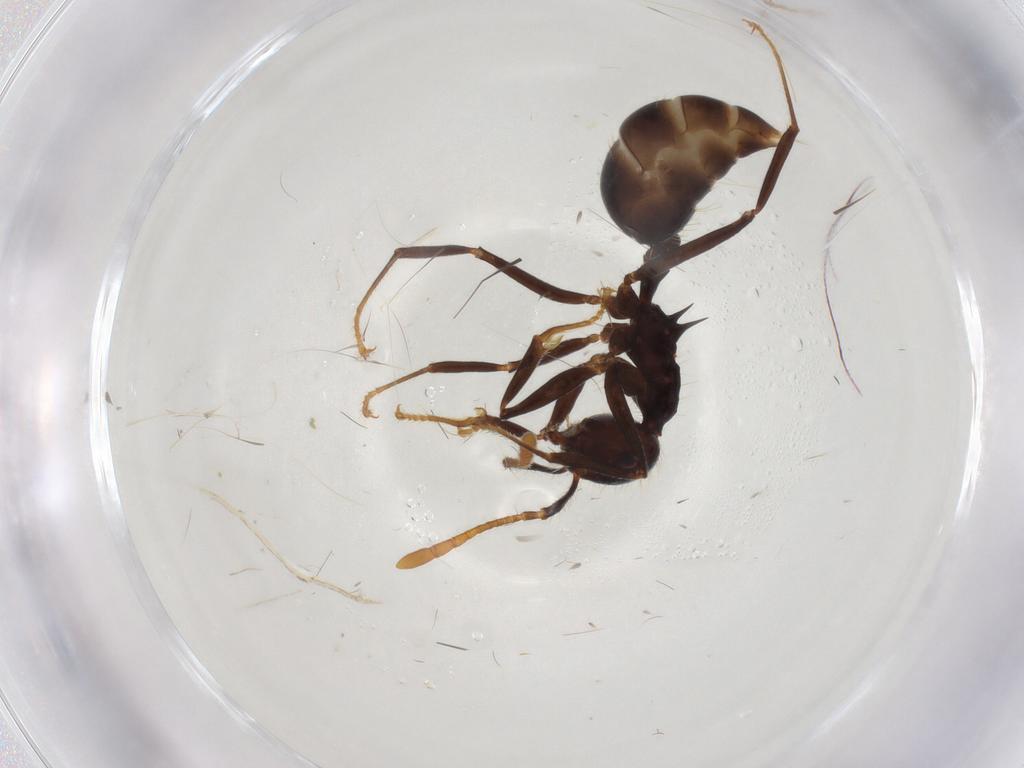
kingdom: Animalia
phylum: Arthropoda
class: Insecta
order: Hymenoptera
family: Formicidae
